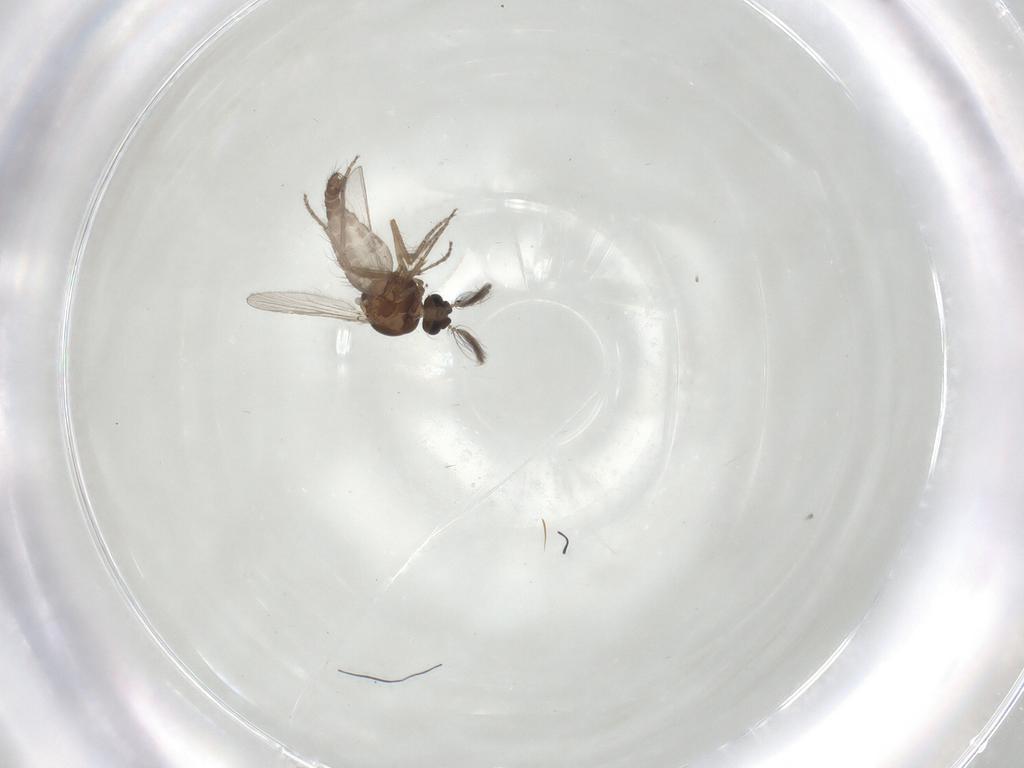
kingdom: Animalia
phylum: Arthropoda
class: Insecta
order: Diptera
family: Ceratopogonidae
